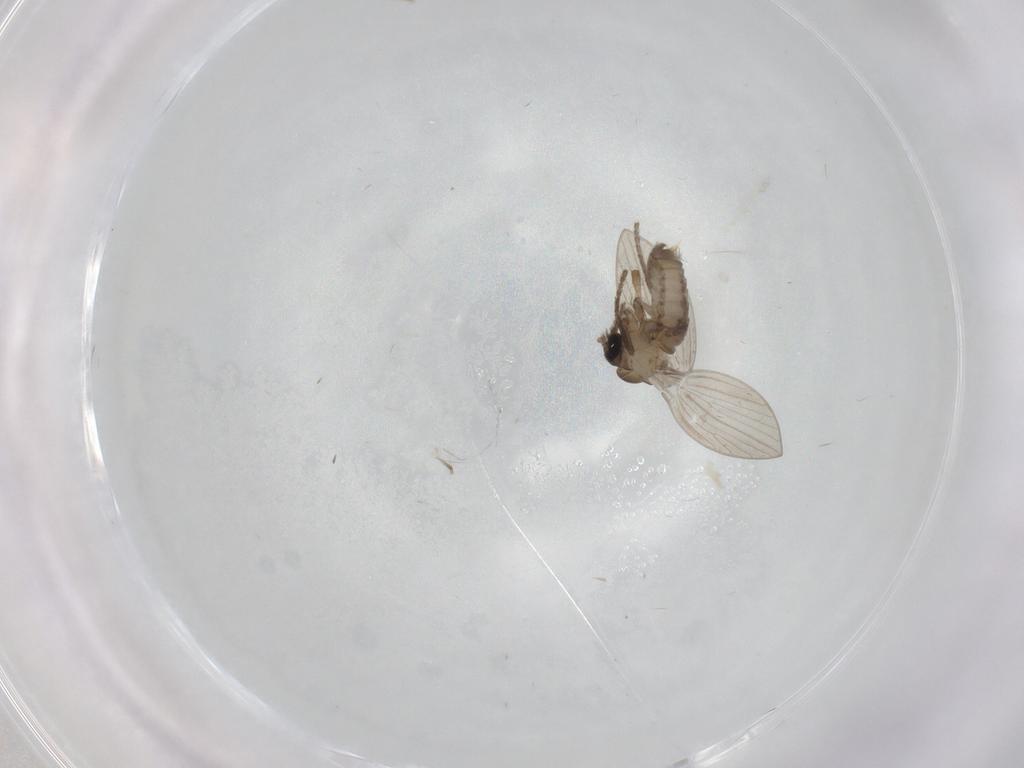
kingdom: Animalia
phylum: Arthropoda
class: Insecta
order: Diptera
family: Psychodidae
